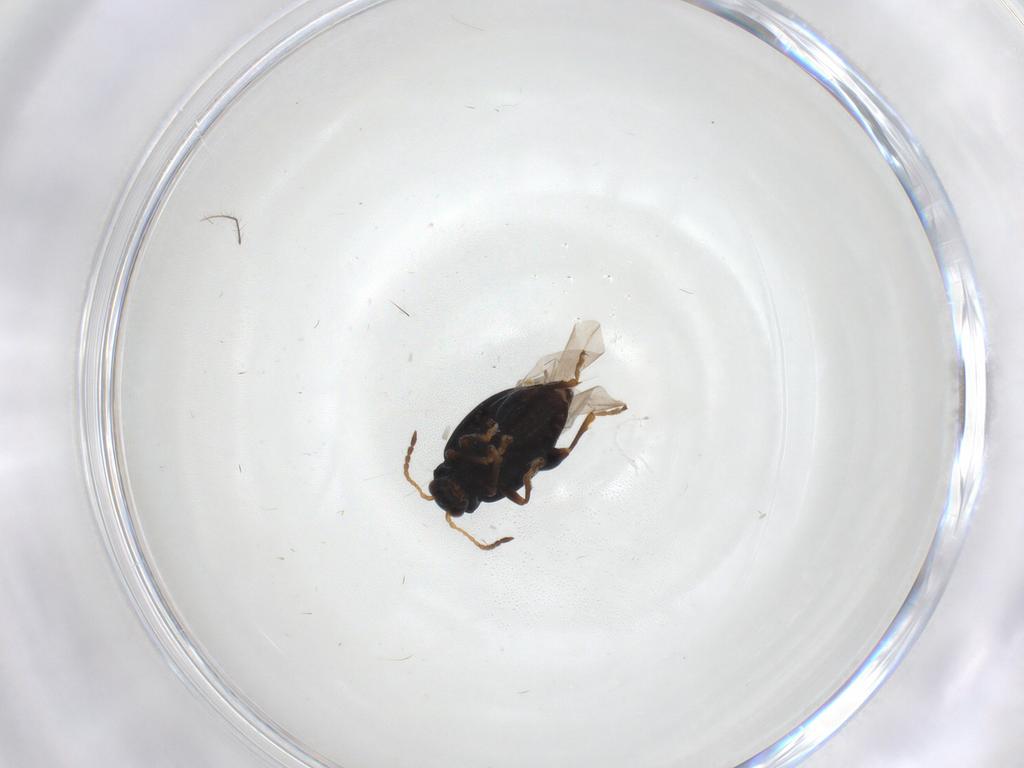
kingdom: Animalia
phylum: Arthropoda
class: Insecta
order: Coleoptera
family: Chrysomelidae
